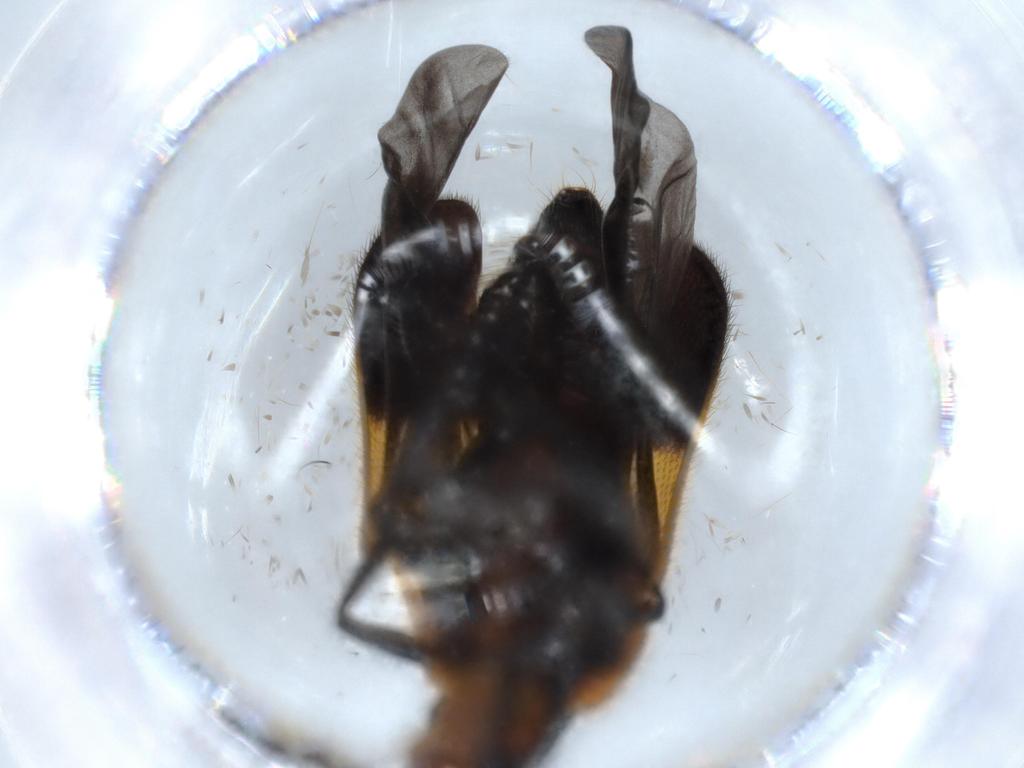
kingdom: Animalia
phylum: Arthropoda
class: Insecta
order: Coleoptera
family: Cleridae
